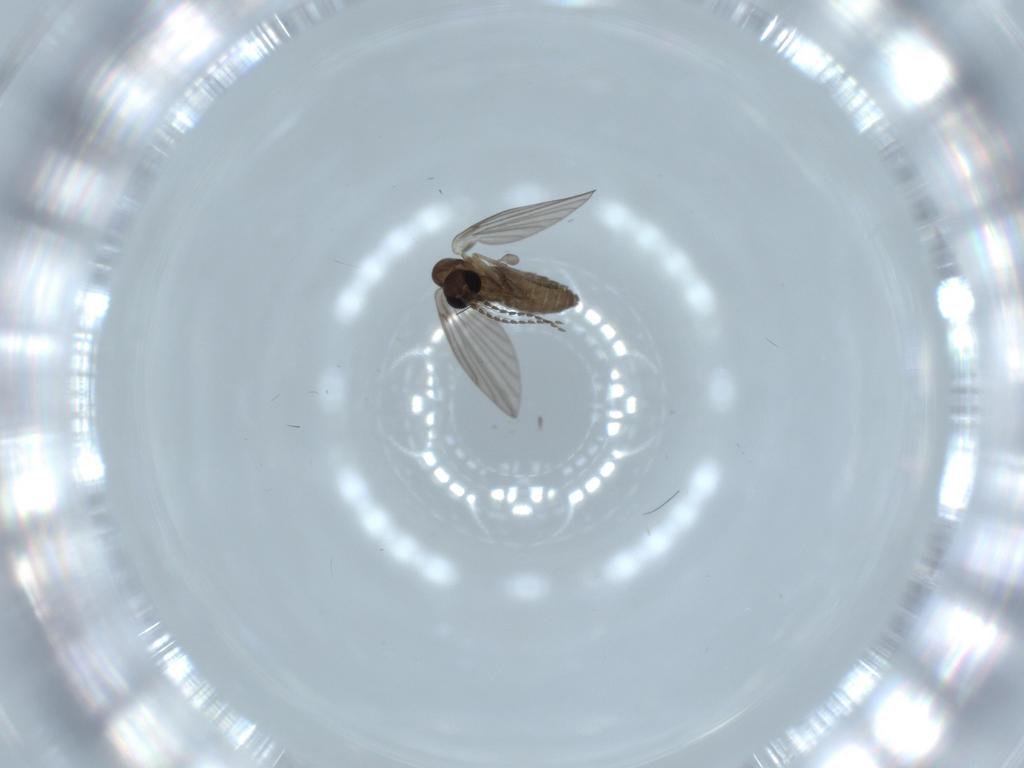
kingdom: Animalia
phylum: Arthropoda
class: Insecta
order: Diptera
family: Psychodidae
